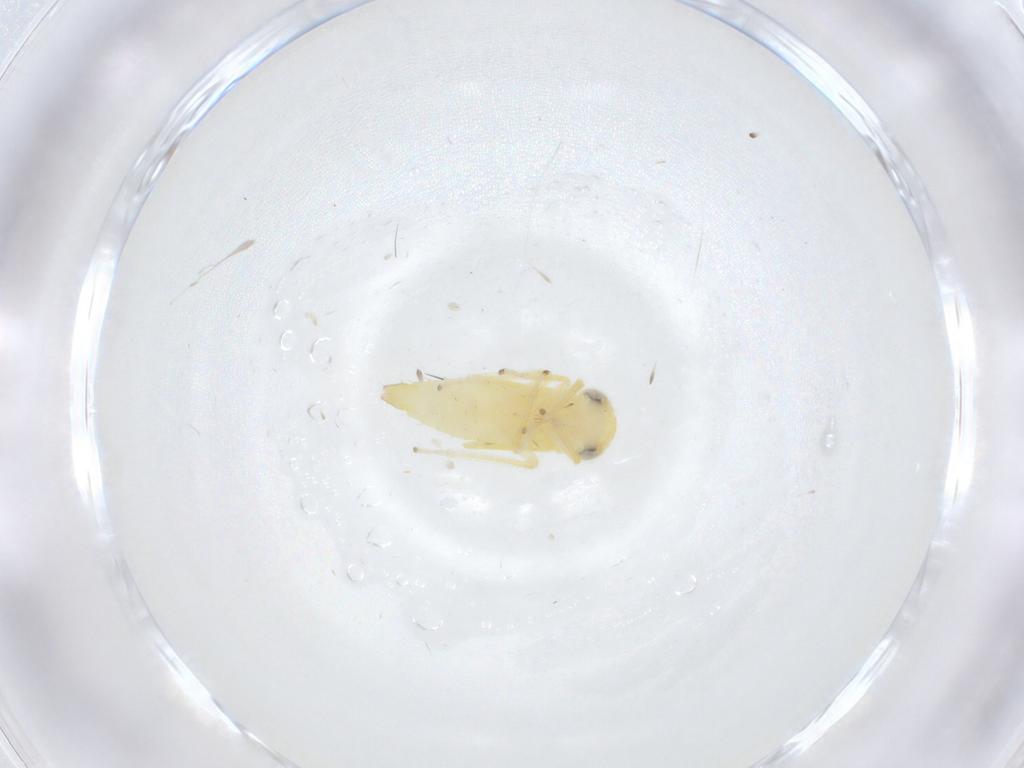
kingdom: Animalia
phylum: Arthropoda
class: Insecta
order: Hemiptera
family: Cicadellidae
